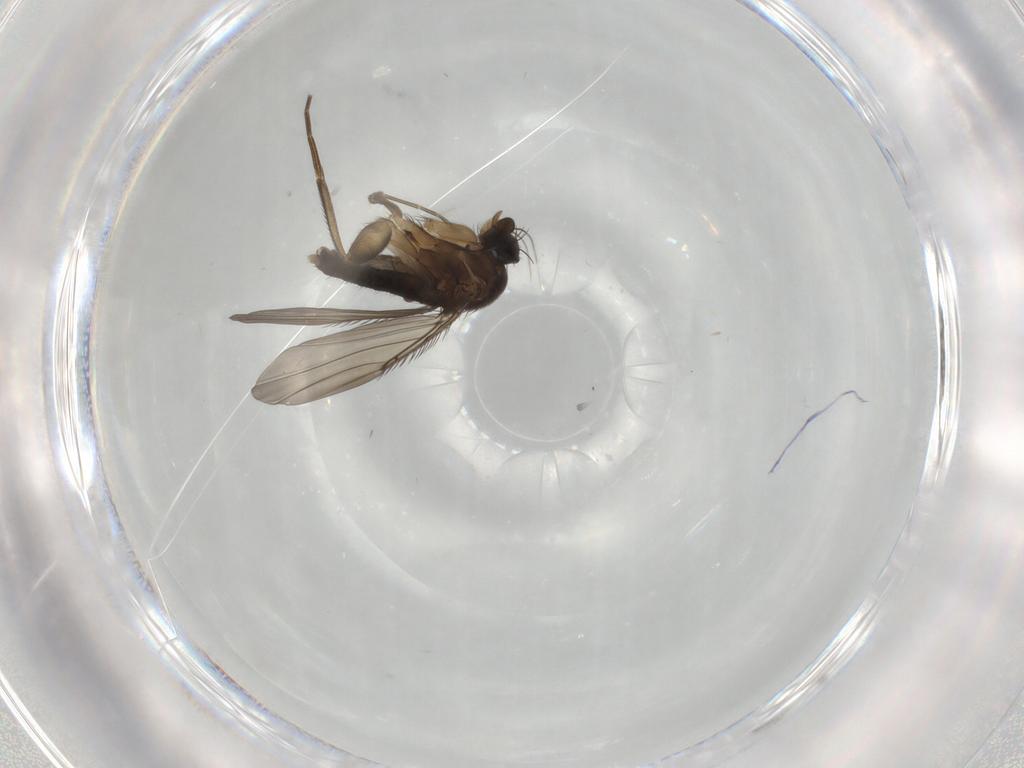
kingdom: Animalia
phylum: Arthropoda
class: Insecta
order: Diptera
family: Phoridae
